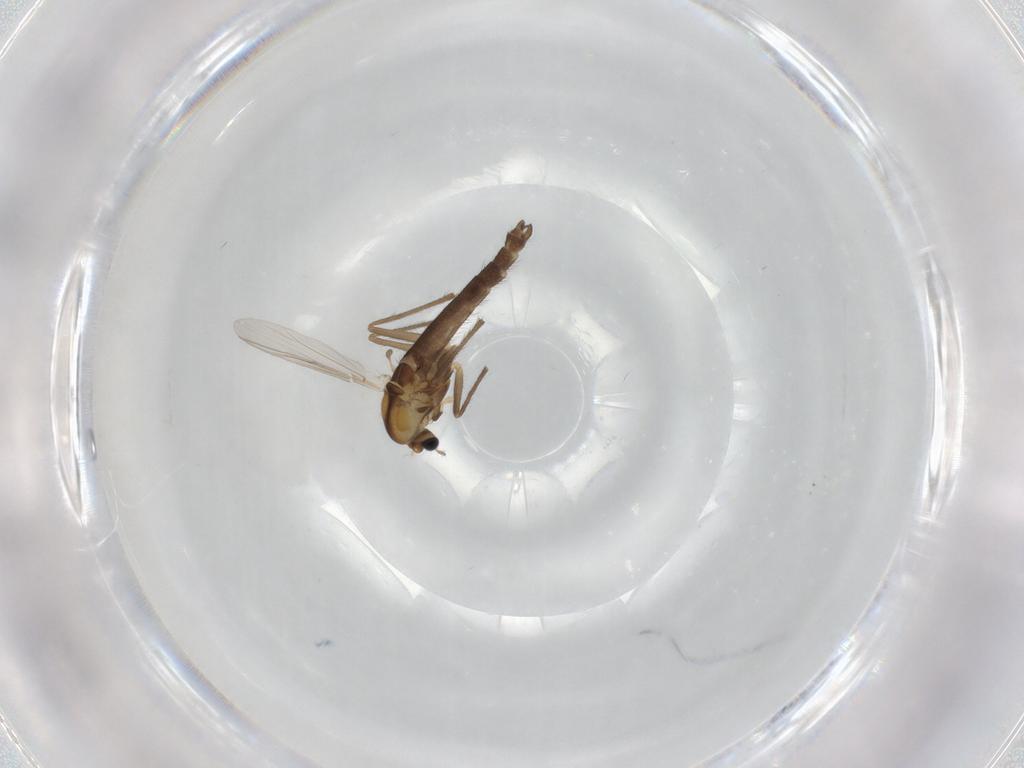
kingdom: Animalia
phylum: Arthropoda
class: Insecta
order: Diptera
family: Chironomidae
